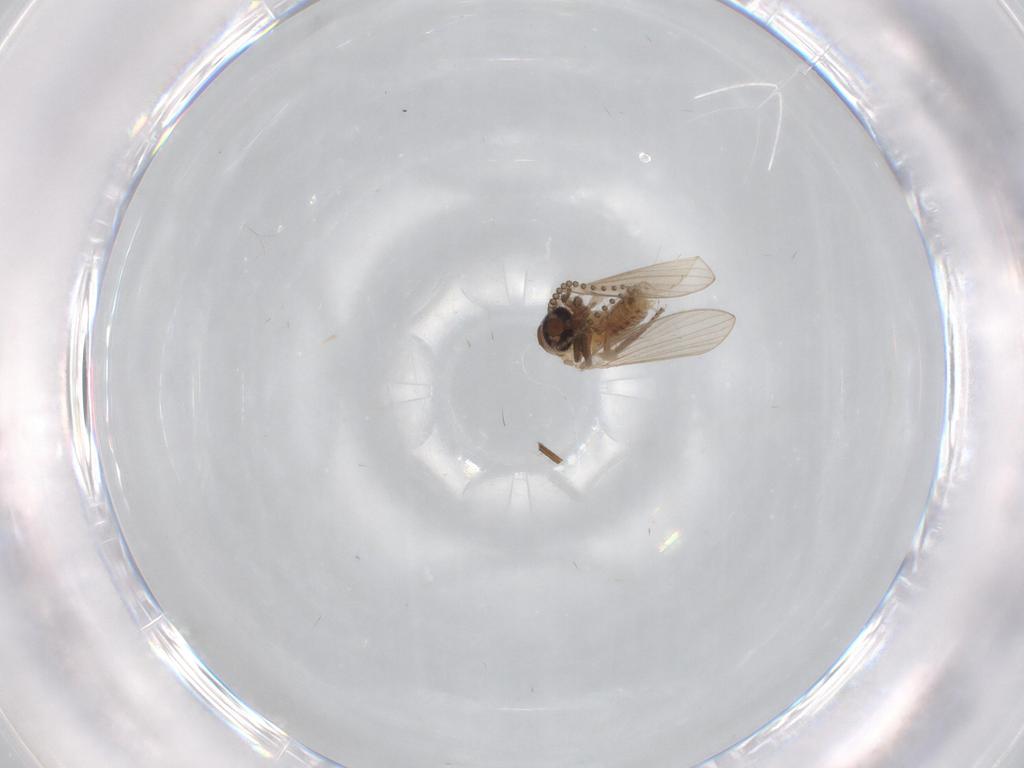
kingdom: Animalia
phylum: Arthropoda
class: Insecta
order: Diptera
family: Psychodidae
